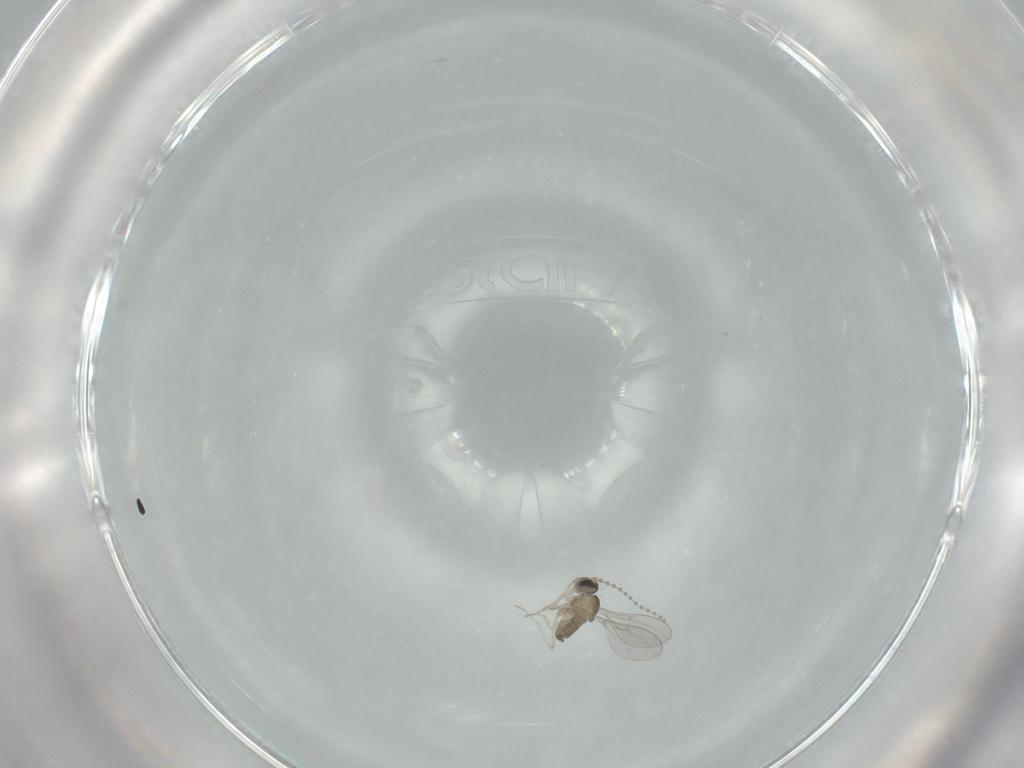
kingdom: Animalia
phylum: Arthropoda
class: Insecta
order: Diptera
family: Cecidomyiidae
